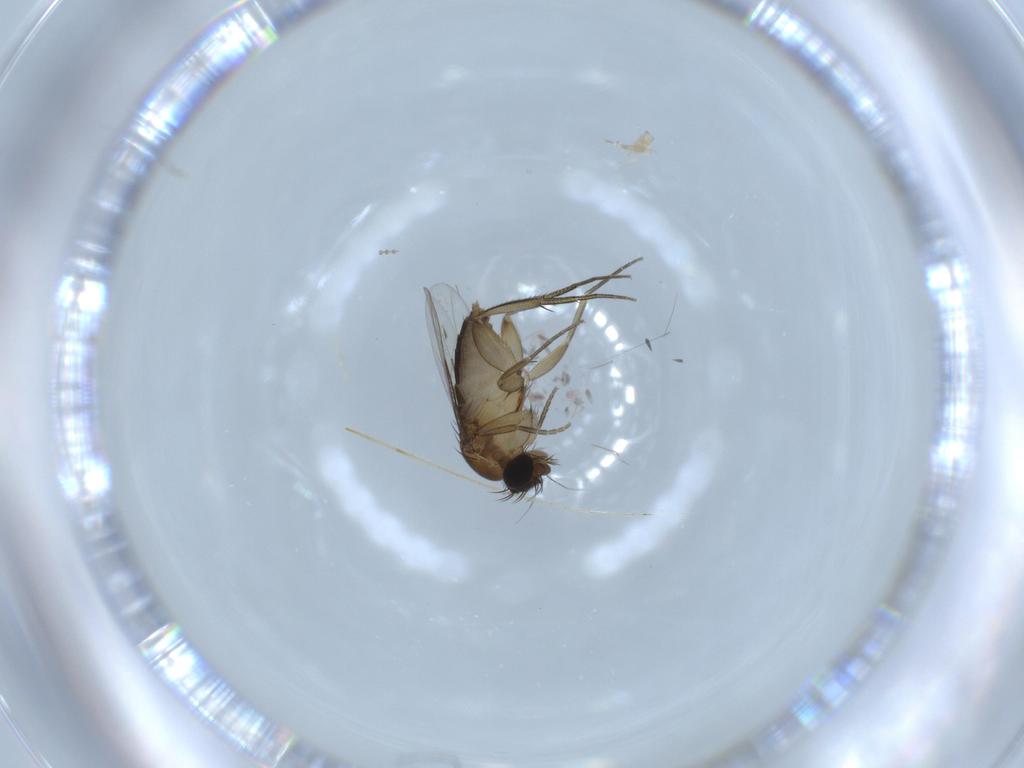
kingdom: Animalia
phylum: Arthropoda
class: Insecta
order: Diptera
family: Phoridae
